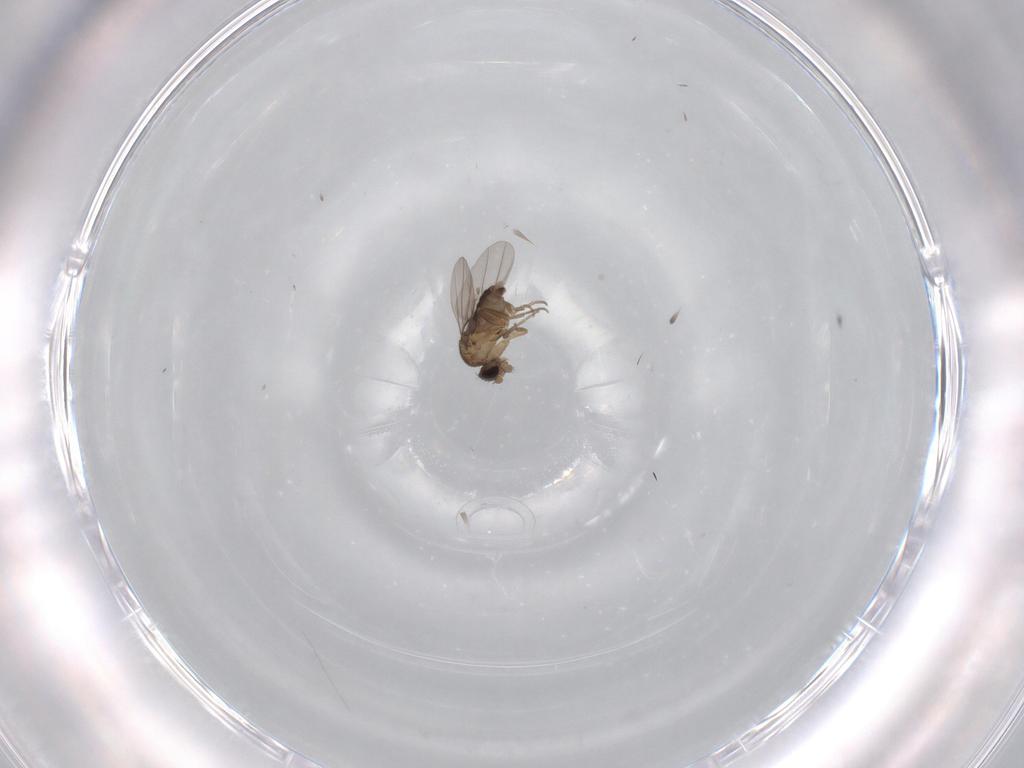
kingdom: Animalia
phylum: Arthropoda
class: Insecta
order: Diptera
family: Phoridae
